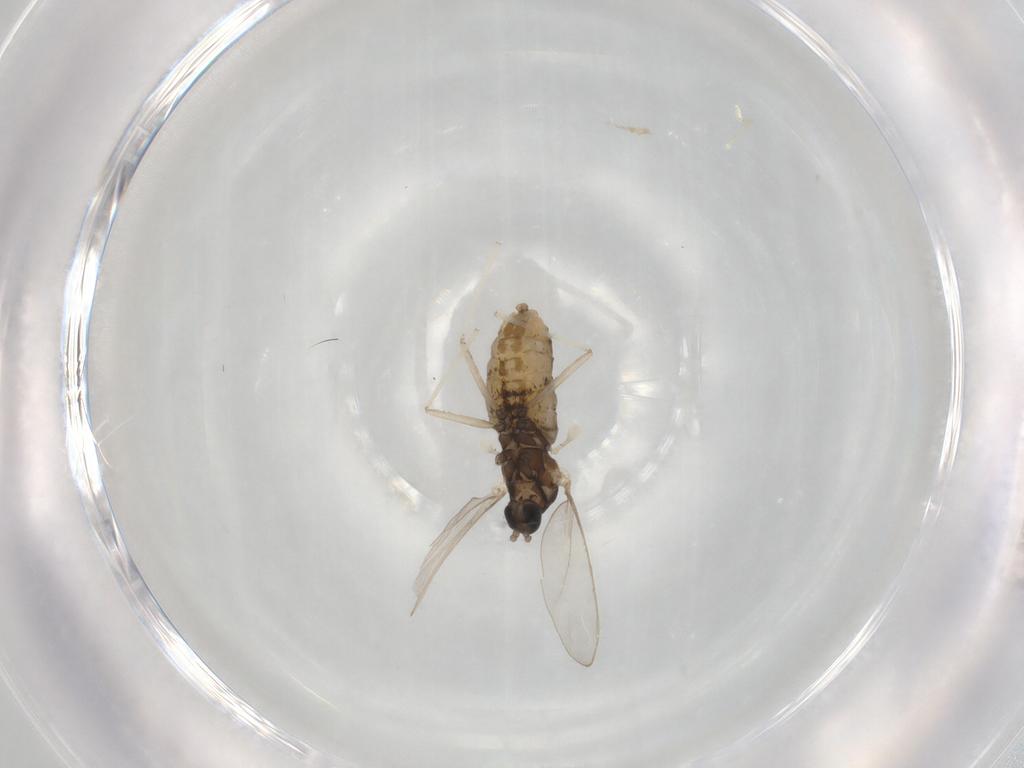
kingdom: Animalia
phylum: Arthropoda
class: Insecta
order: Diptera
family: Cecidomyiidae
